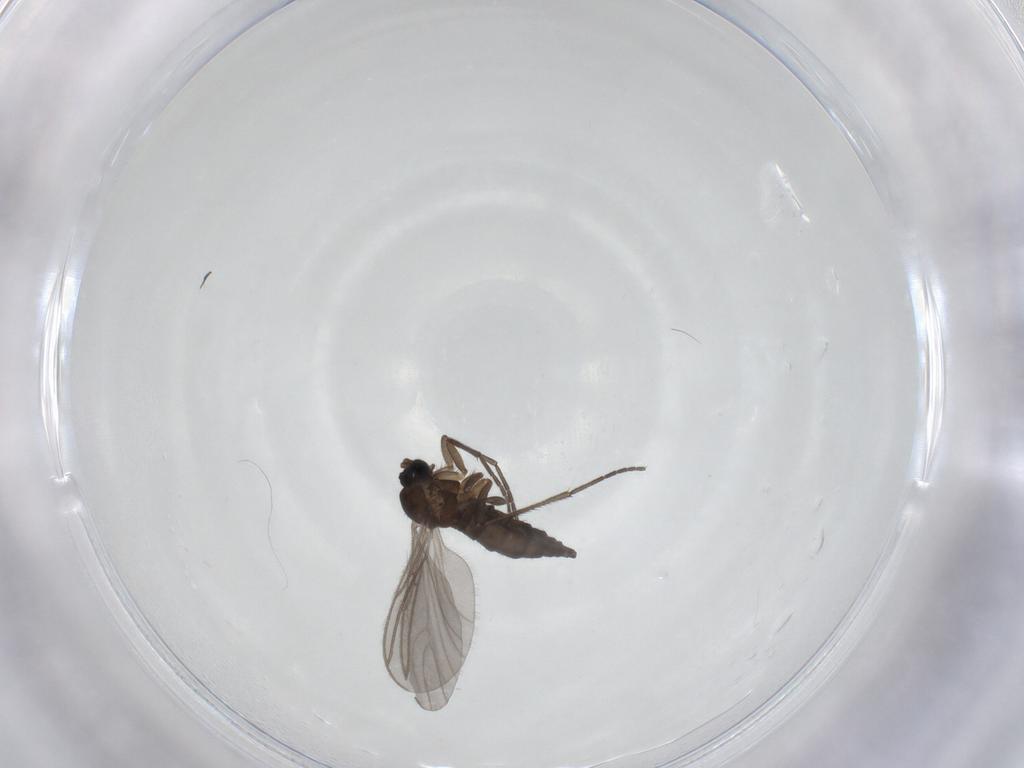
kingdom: Animalia
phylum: Arthropoda
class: Insecta
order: Diptera
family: Sciaridae
